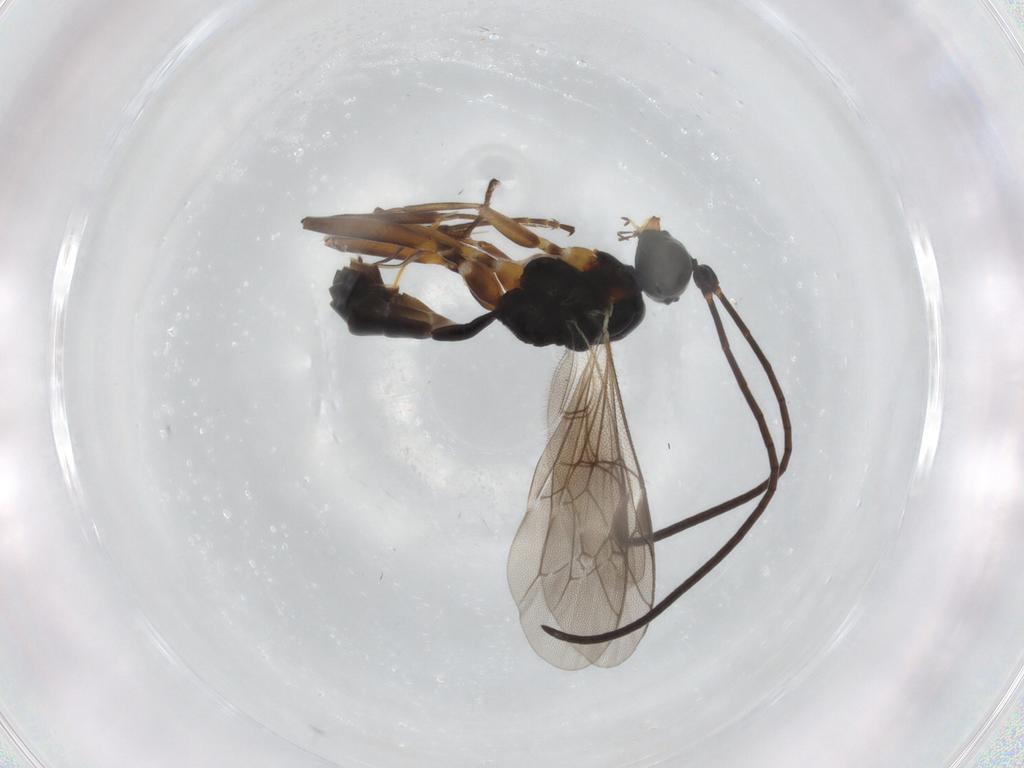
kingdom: Animalia
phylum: Arthropoda
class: Insecta
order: Hymenoptera
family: Ichneumonidae
